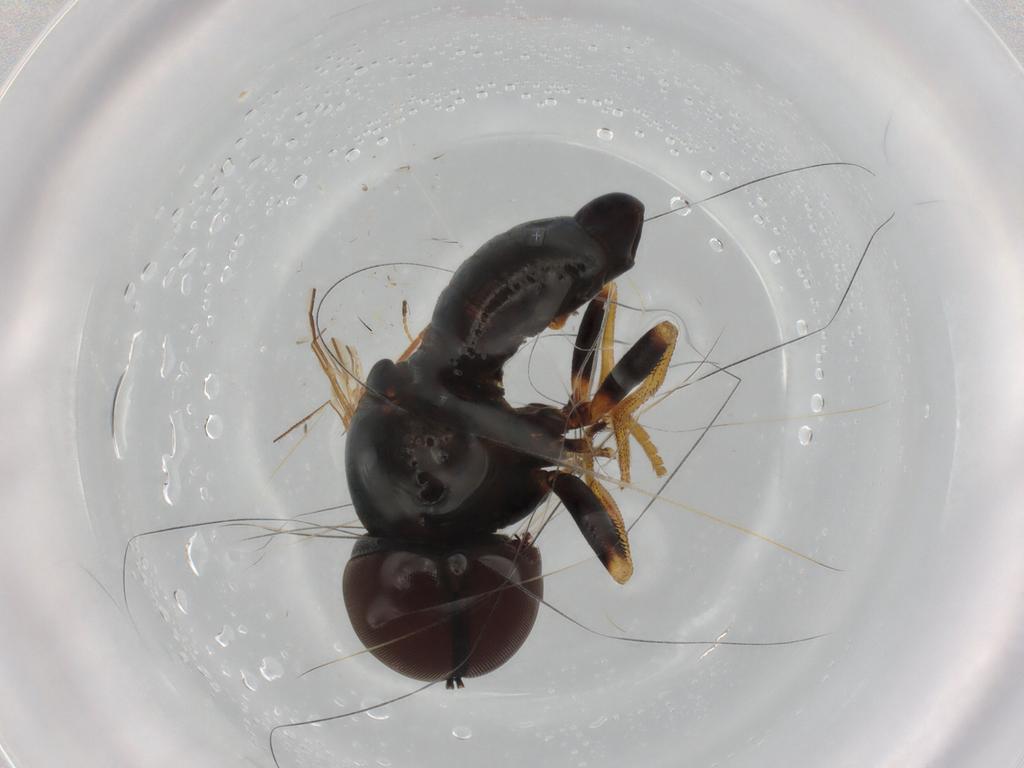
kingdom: Animalia
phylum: Arthropoda
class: Insecta
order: Diptera
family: Pipunculidae
